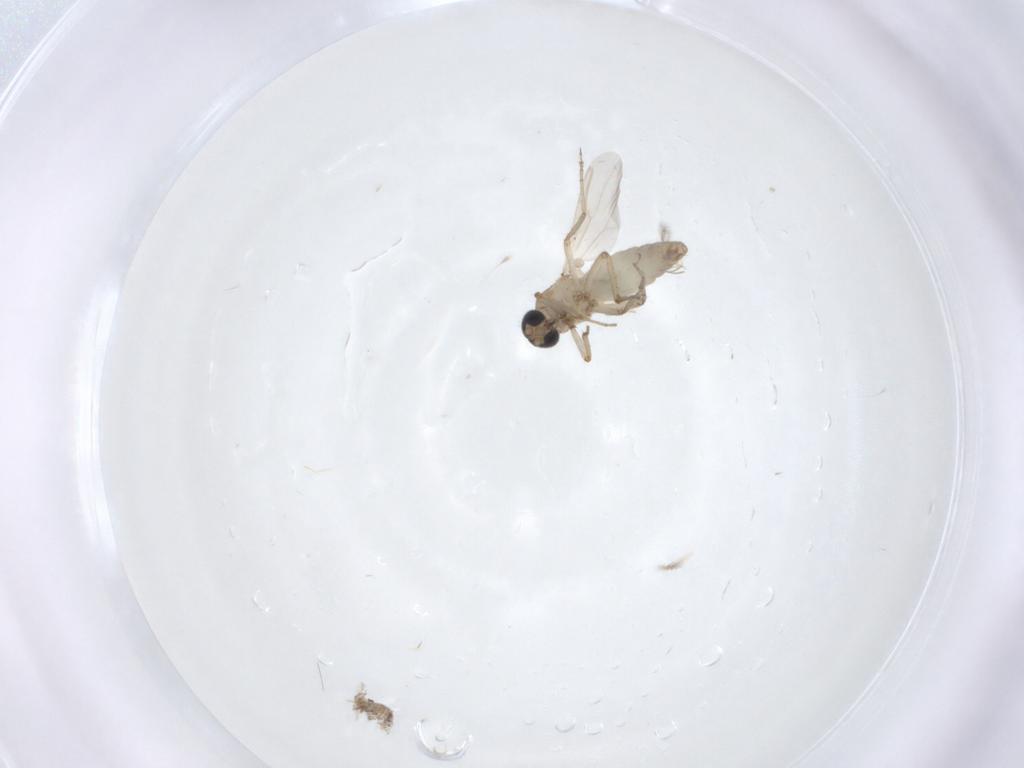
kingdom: Animalia
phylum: Arthropoda
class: Insecta
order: Diptera
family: Ceratopogonidae
